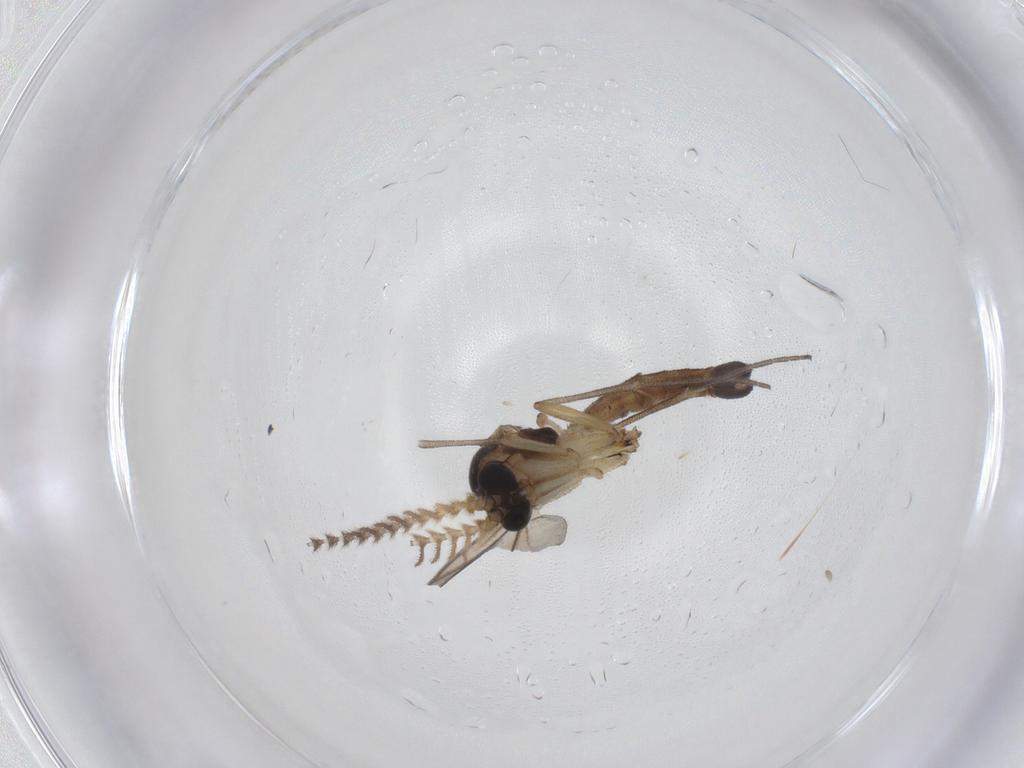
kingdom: Animalia
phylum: Arthropoda
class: Insecta
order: Diptera
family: Mycetophilidae
